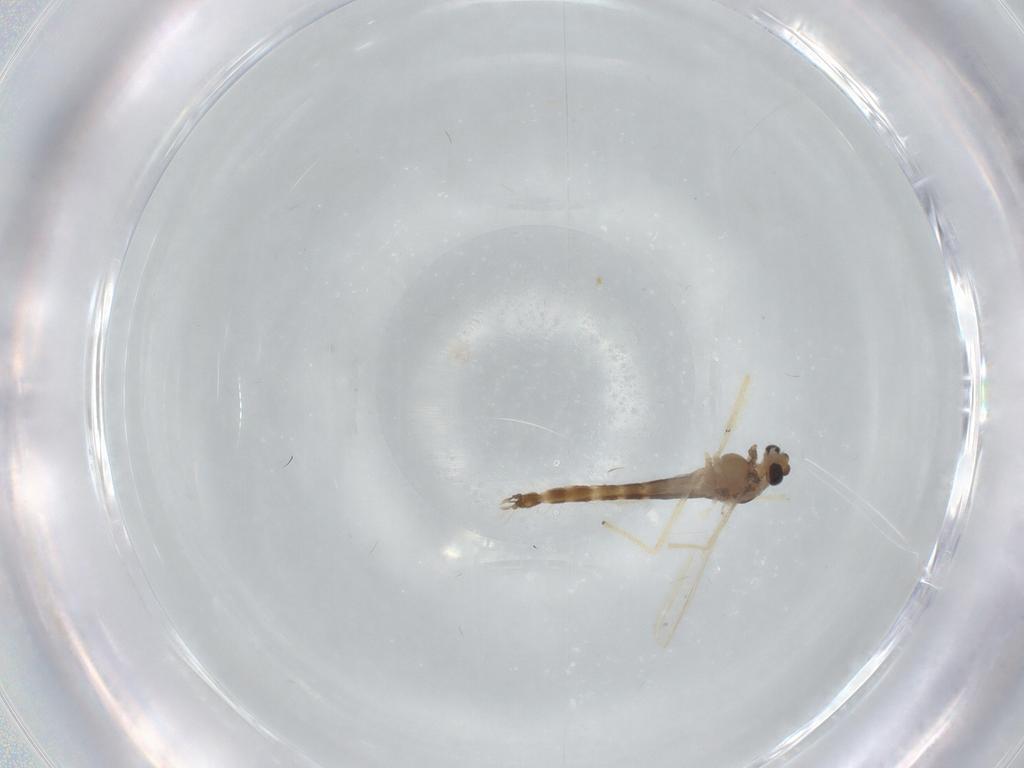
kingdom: Animalia
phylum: Arthropoda
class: Insecta
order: Diptera
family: Chironomidae
